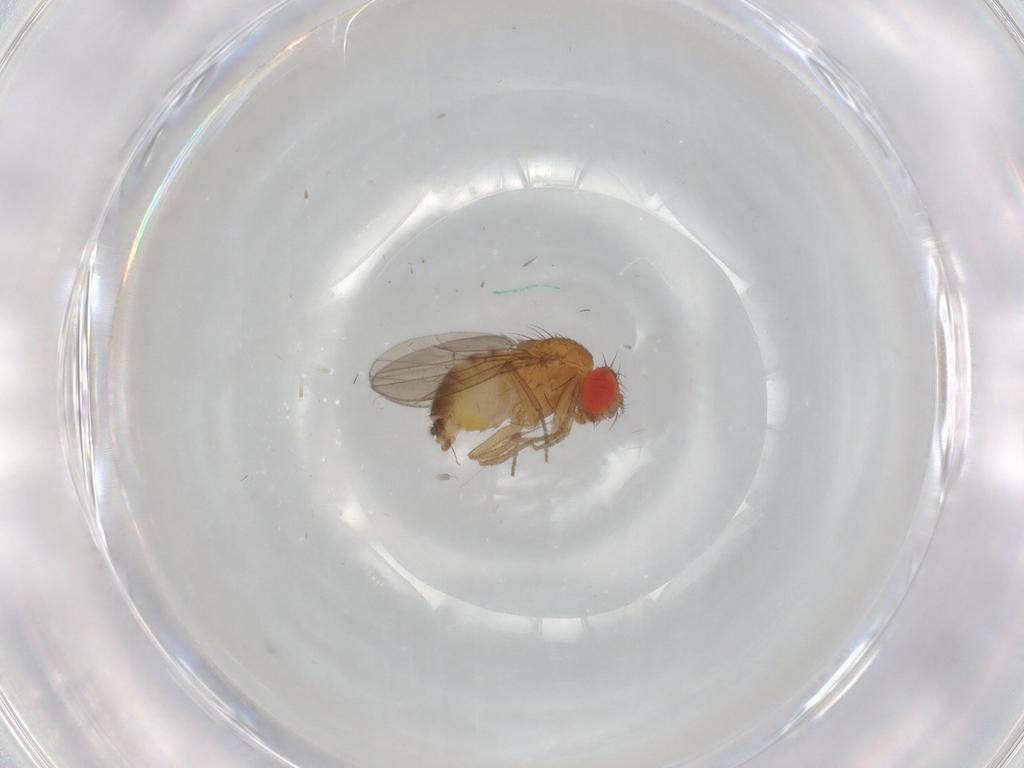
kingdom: Animalia
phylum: Arthropoda
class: Insecta
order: Diptera
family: Drosophilidae
